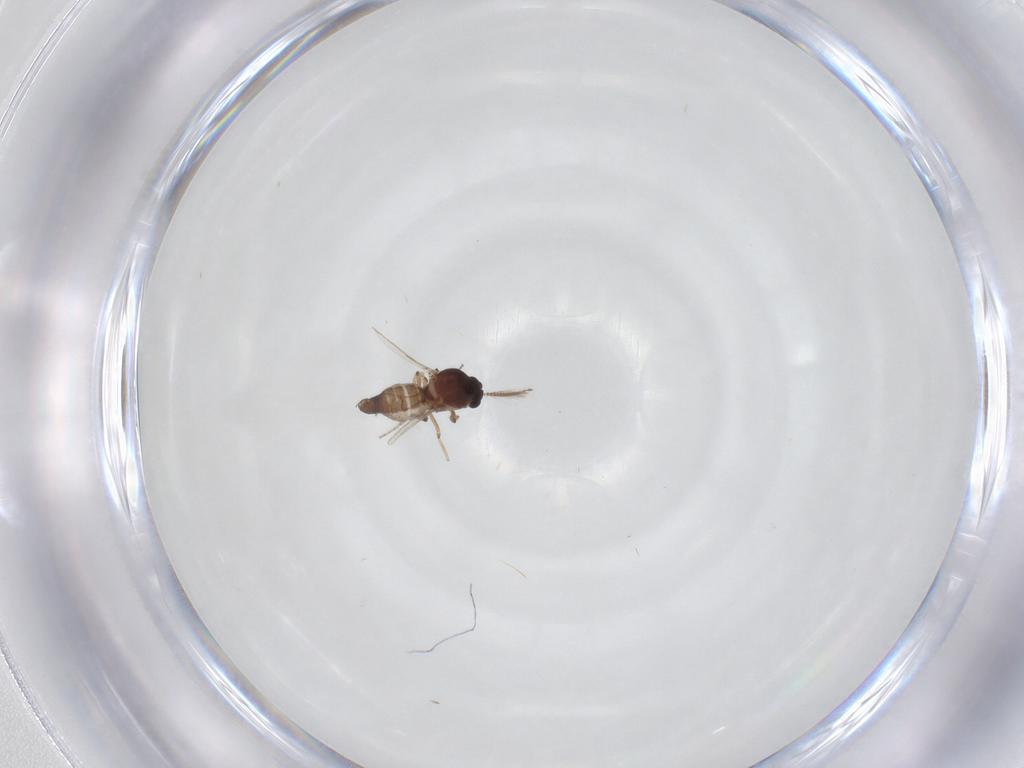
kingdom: Animalia
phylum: Arthropoda
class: Insecta
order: Diptera
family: Ceratopogonidae
